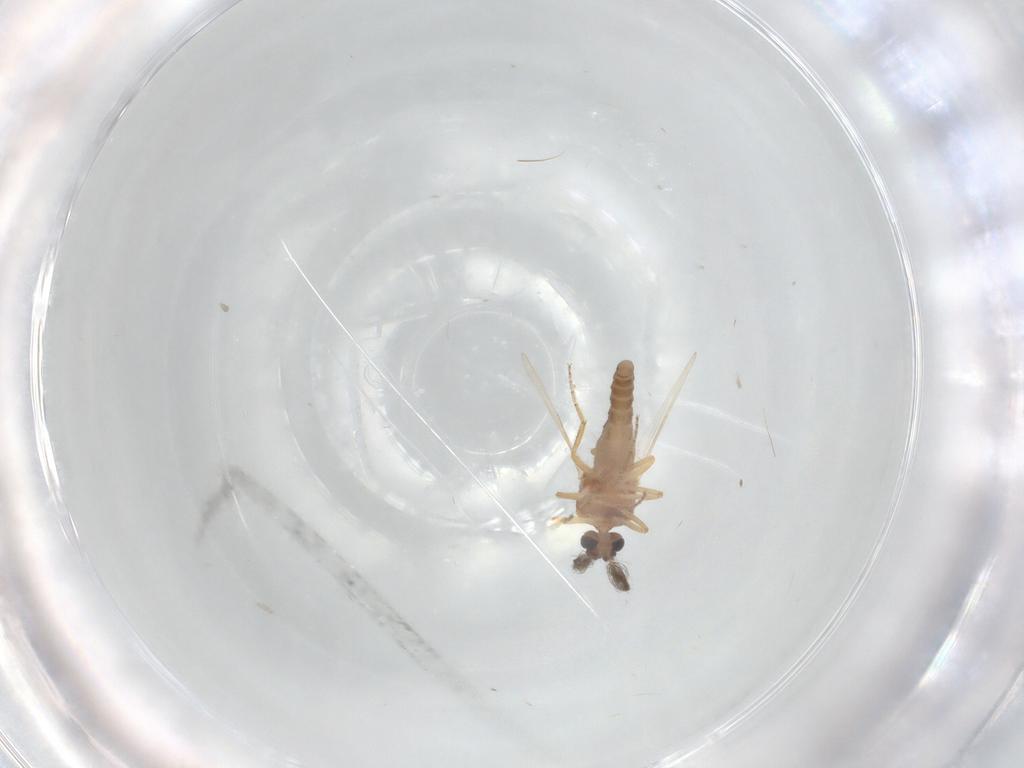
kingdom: Animalia
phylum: Arthropoda
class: Insecta
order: Diptera
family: Ceratopogonidae
